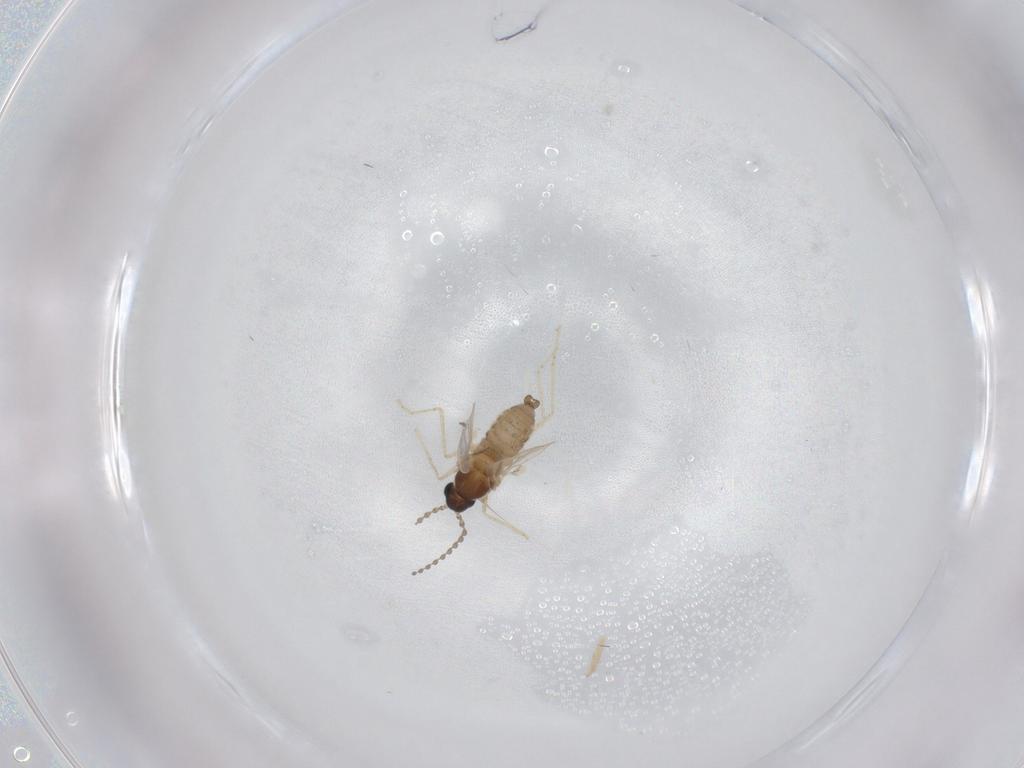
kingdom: Animalia
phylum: Arthropoda
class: Insecta
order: Diptera
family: Cecidomyiidae
